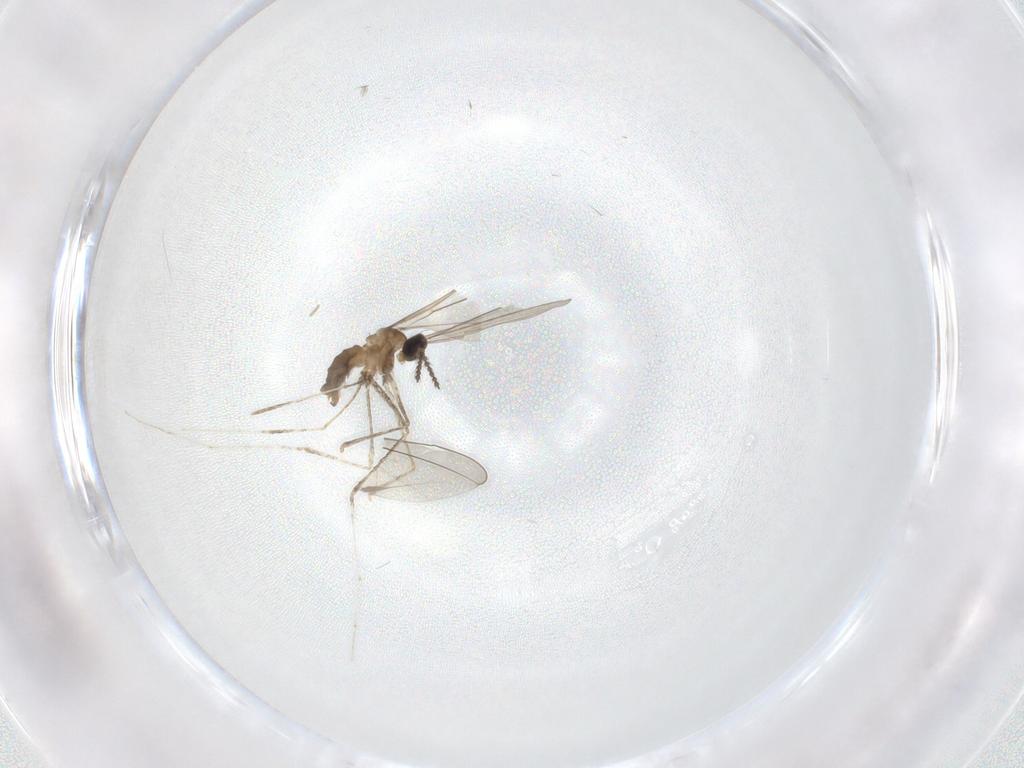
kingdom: Animalia
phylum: Arthropoda
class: Insecta
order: Diptera
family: Cecidomyiidae
